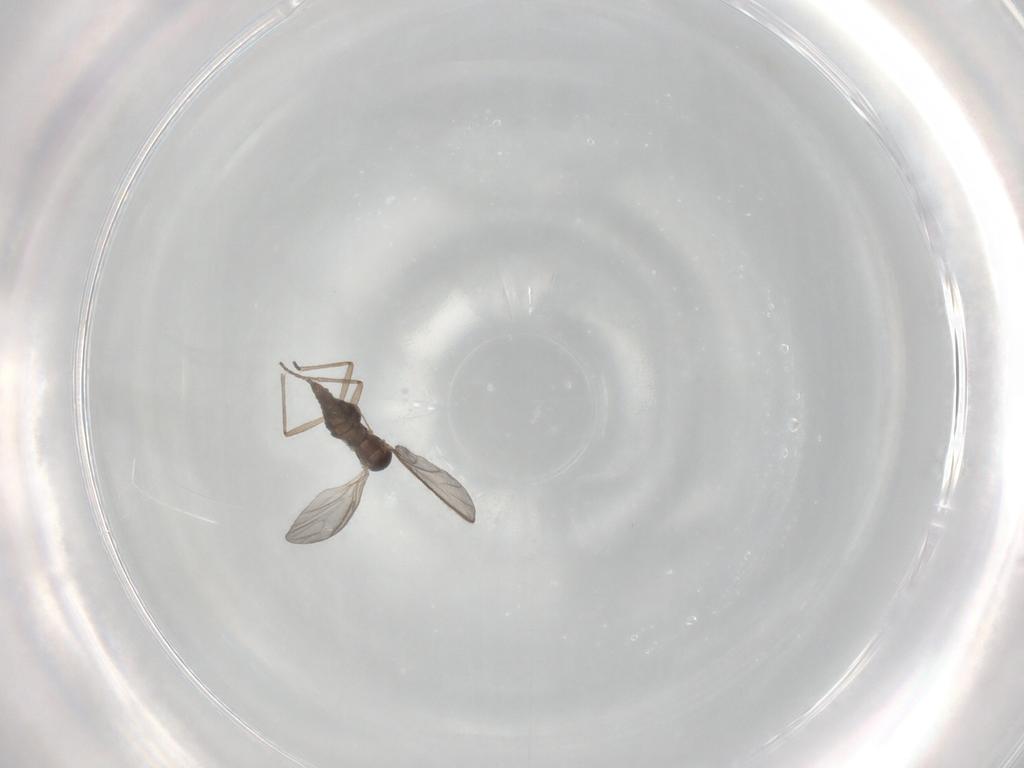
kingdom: Animalia
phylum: Arthropoda
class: Insecta
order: Diptera
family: Sciaridae
